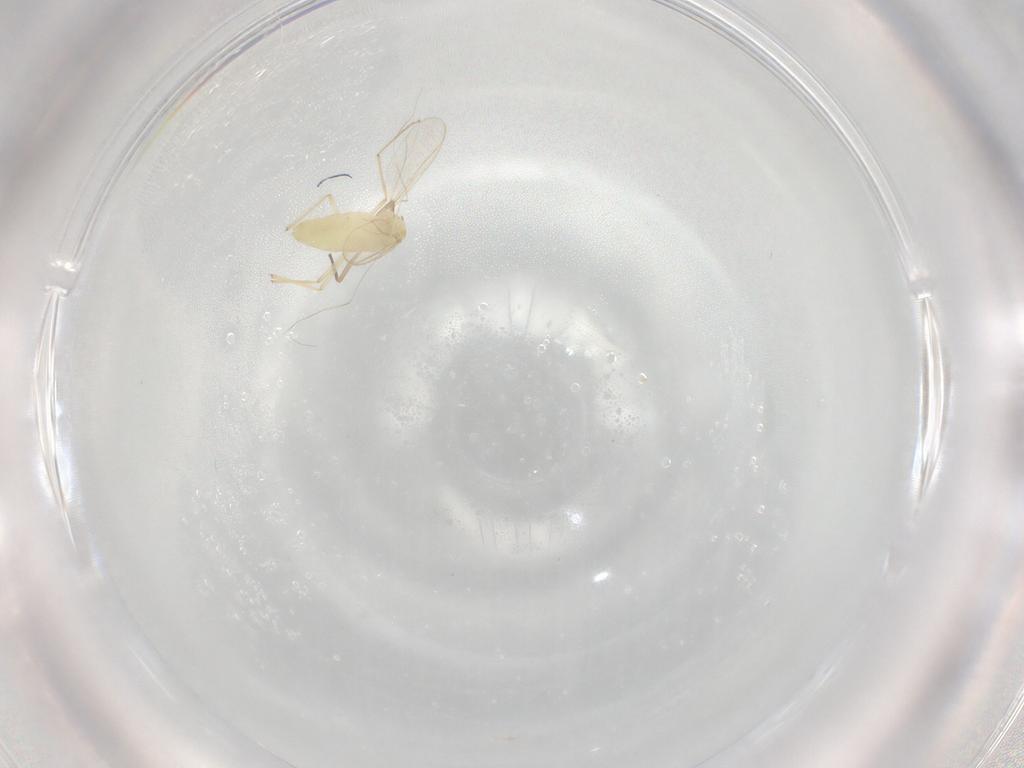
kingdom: Animalia
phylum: Arthropoda
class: Insecta
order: Diptera
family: Chironomidae
